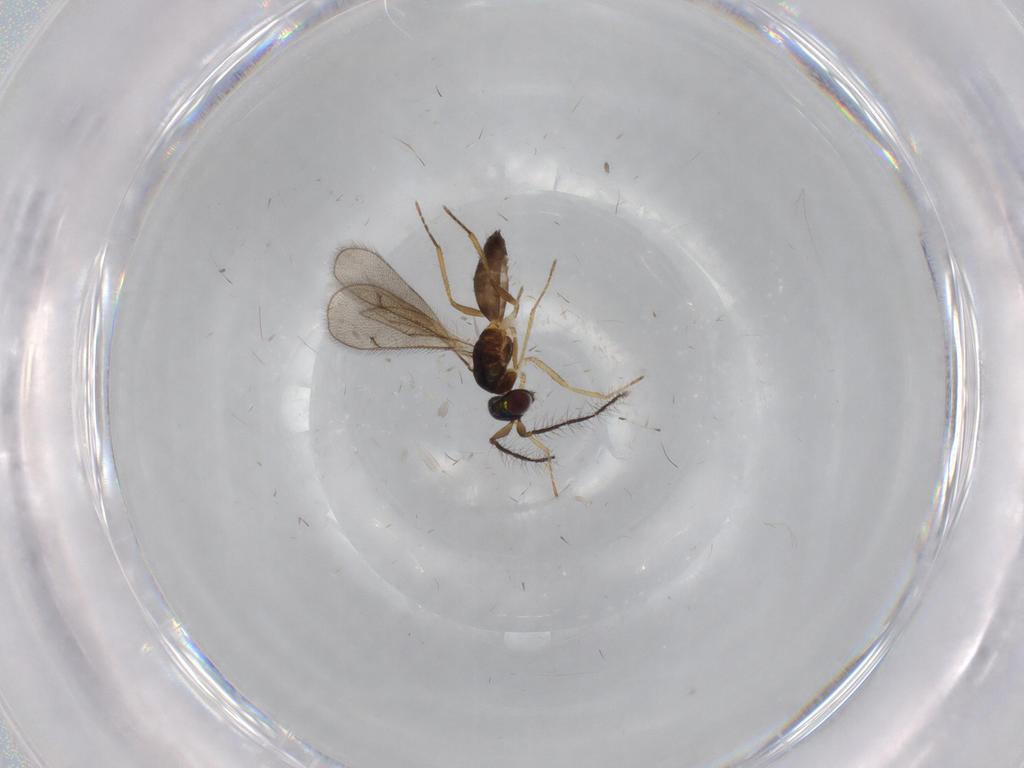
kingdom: Animalia
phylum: Arthropoda
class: Insecta
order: Hymenoptera
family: Eulophidae
